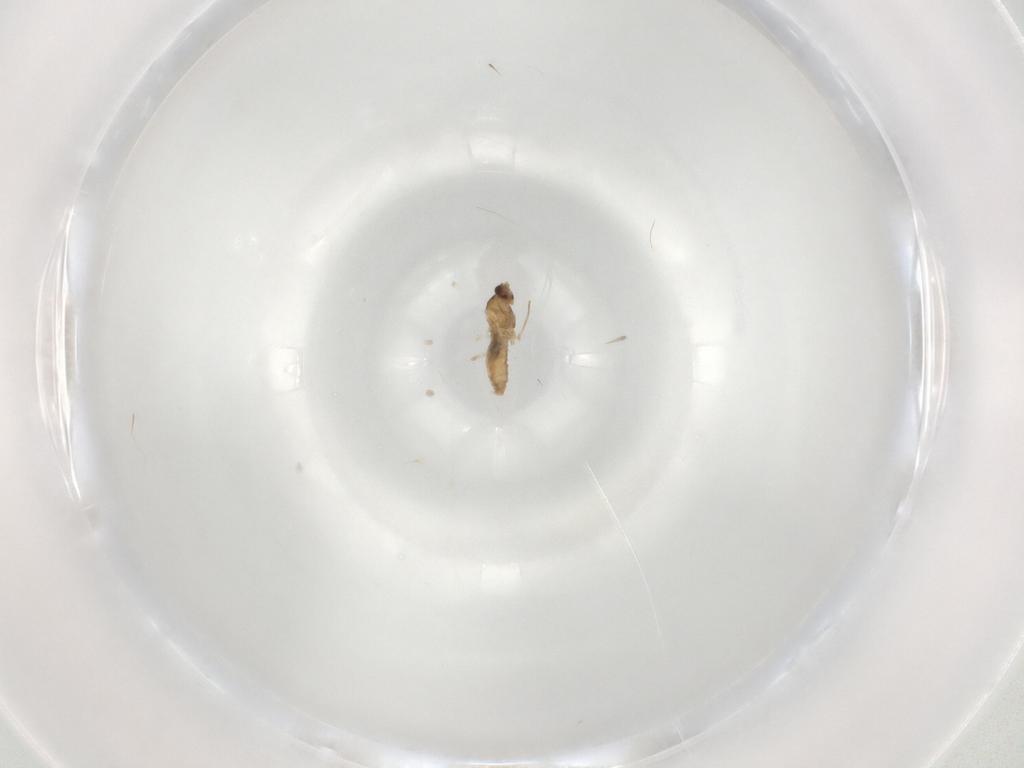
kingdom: Animalia
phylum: Arthropoda
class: Insecta
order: Diptera
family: Cecidomyiidae
